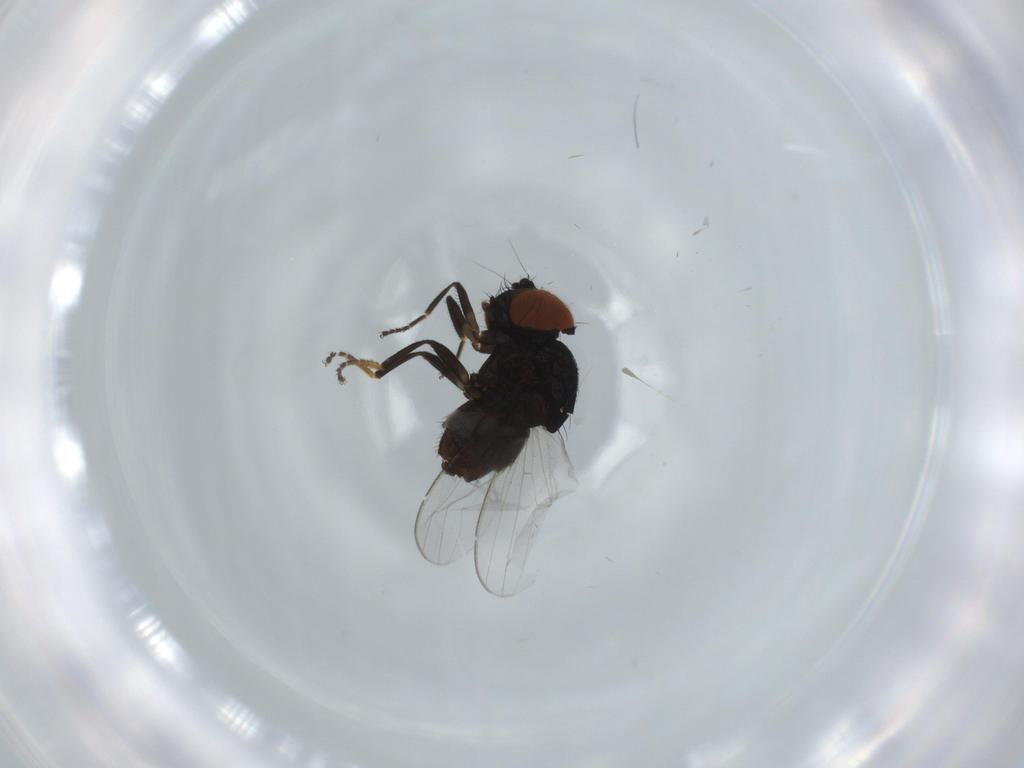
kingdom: Animalia
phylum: Arthropoda
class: Insecta
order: Diptera
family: Milichiidae
